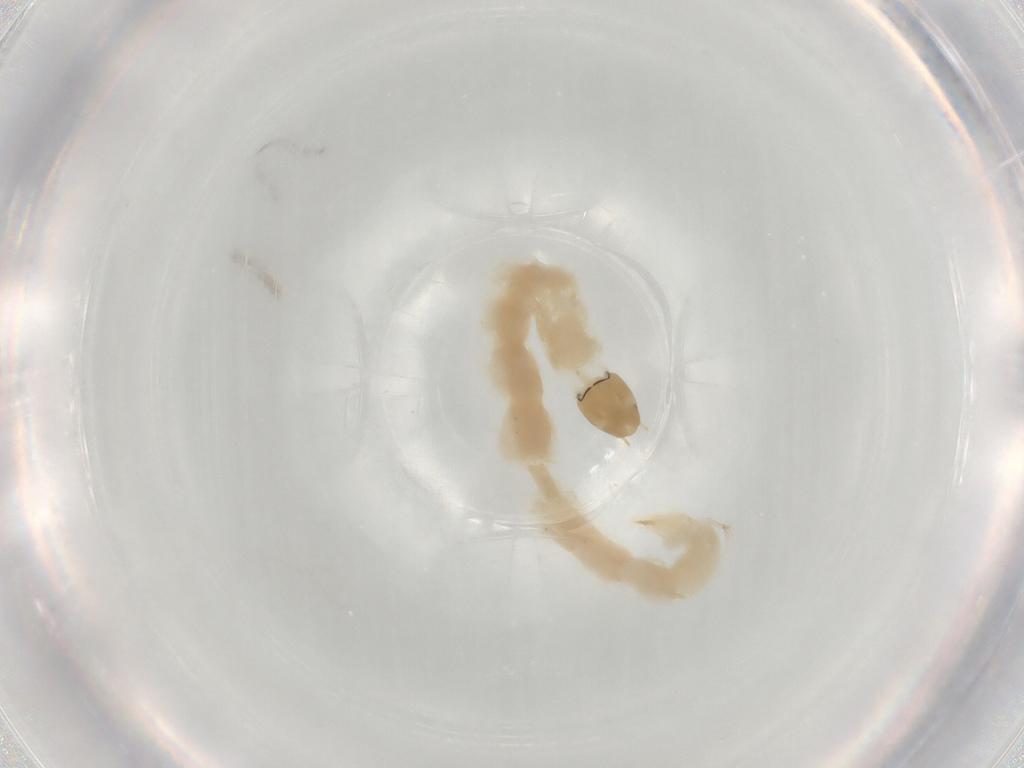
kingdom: Animalia
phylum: Arthropoda
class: Insecta
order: Diptera
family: Chironomidae
